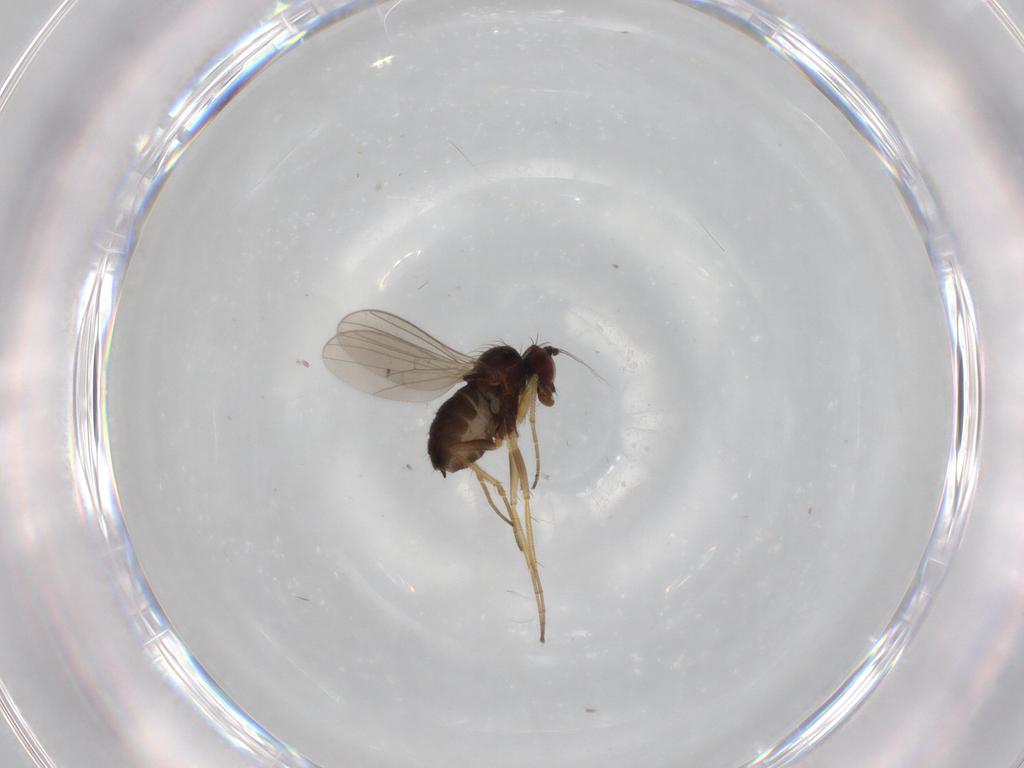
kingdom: Animalia
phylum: Arthropoda
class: Insecta
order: Diptera
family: Dolichopodidae
